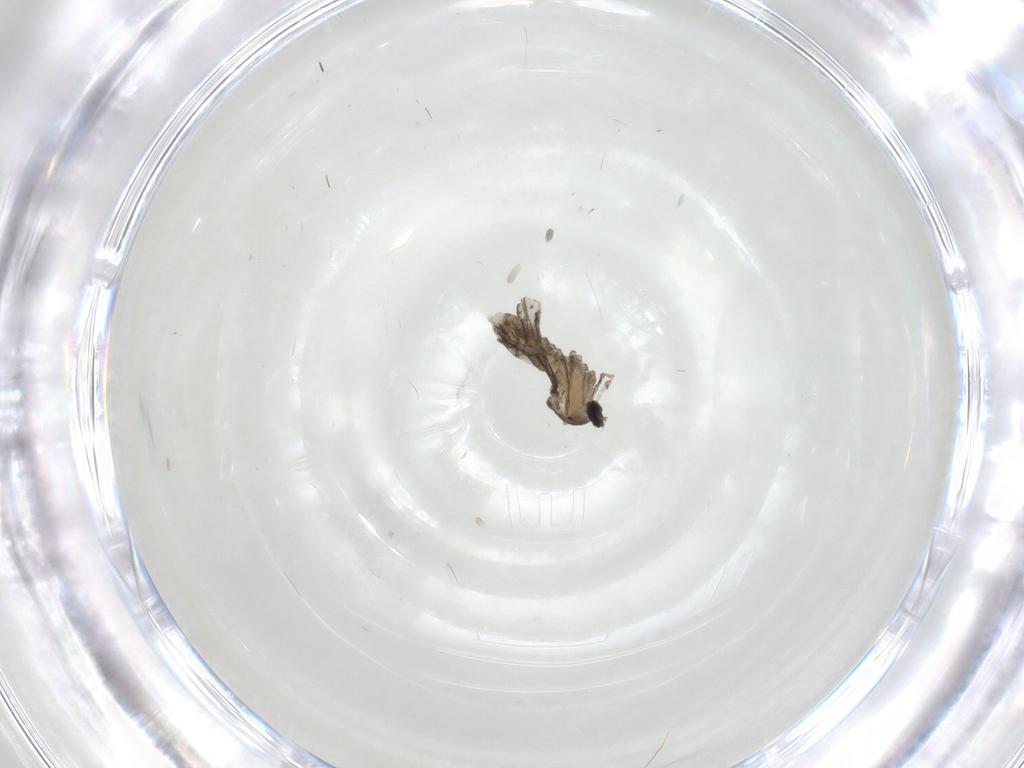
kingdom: Animalia
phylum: Arthropoda
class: Insecta
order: Diptera
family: Cecidomyiidae
